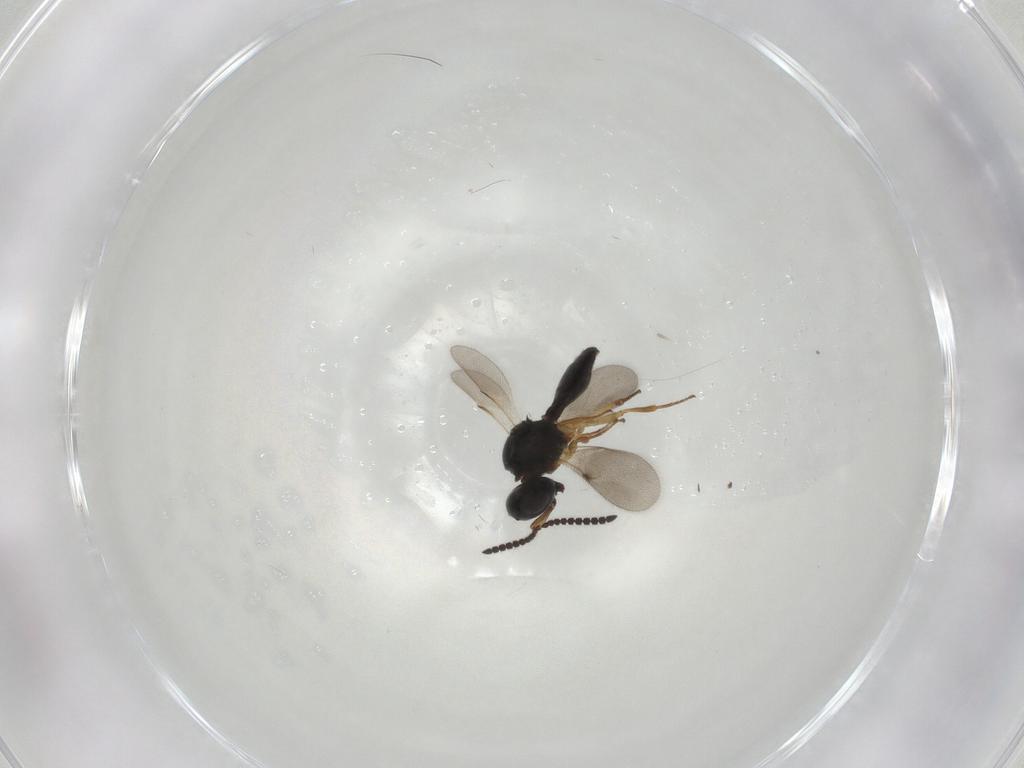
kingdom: Animalia
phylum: Arthropoda
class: Insecta
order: Hymenoptera
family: Scelionidae
